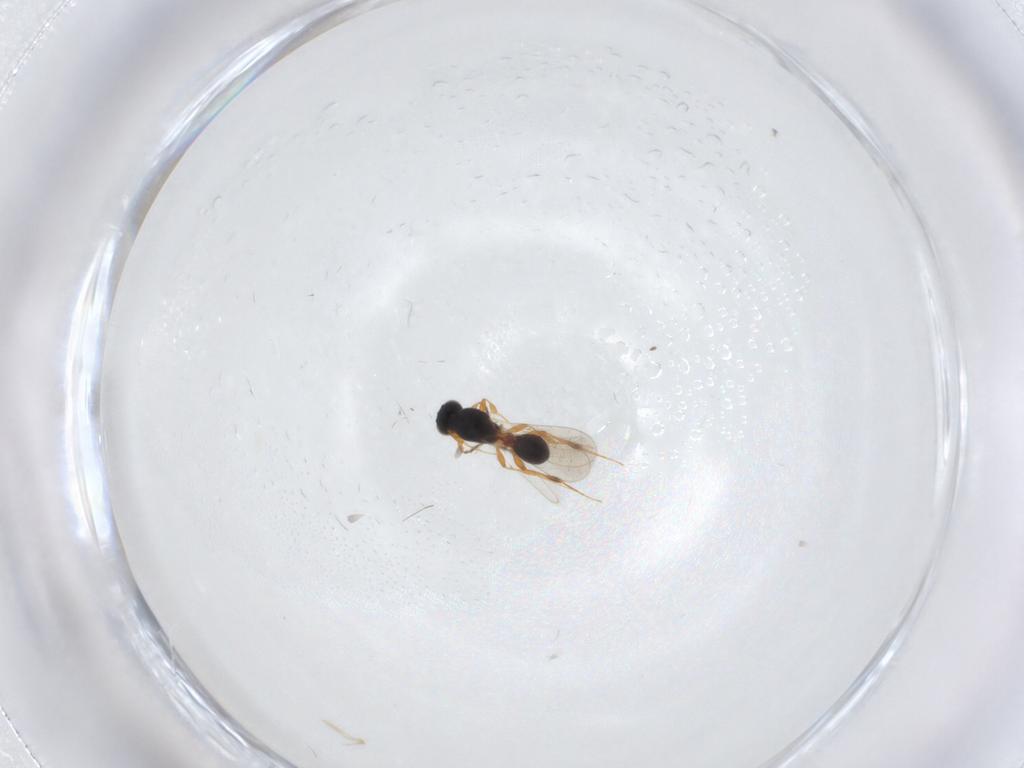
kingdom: Animalia
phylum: Arthropoda
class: Insecta
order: Hymenoptera
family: Platygastridae
